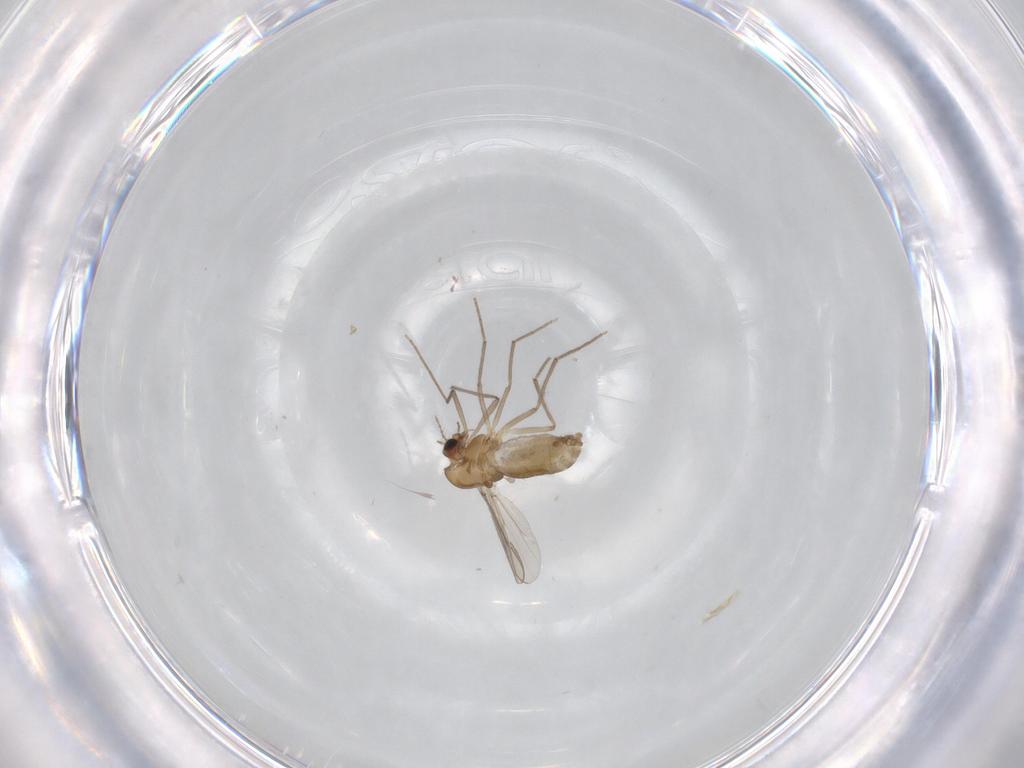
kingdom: Animalia
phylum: Arthropoda
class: Insecta
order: Diptera
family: Chironomidae
